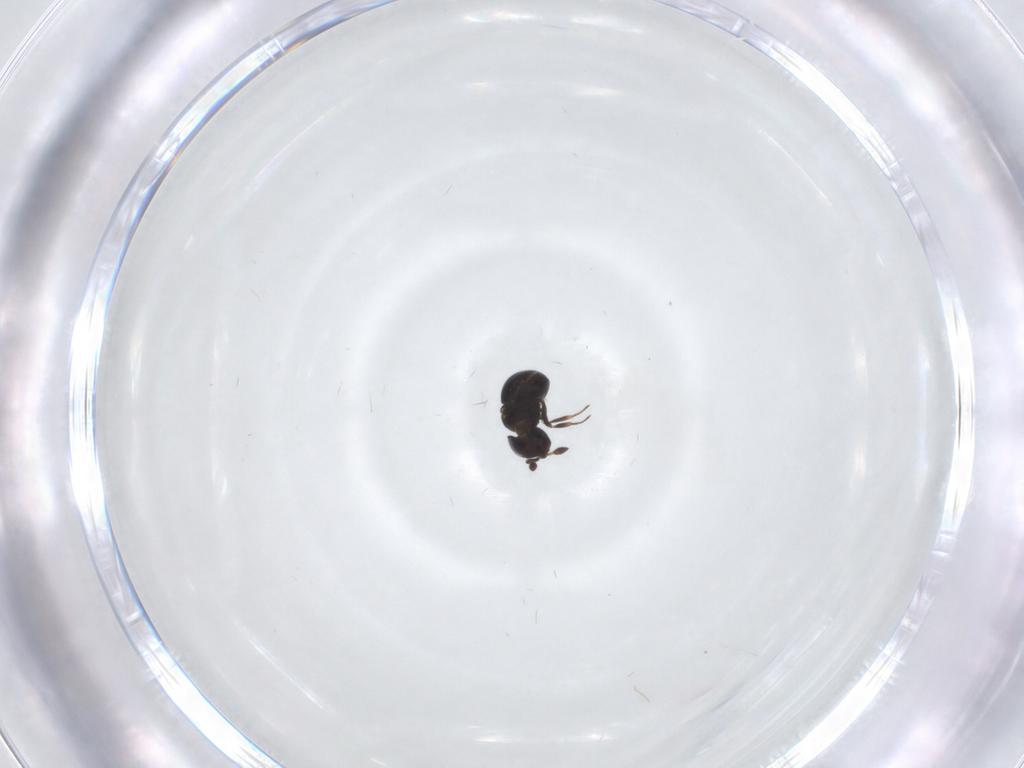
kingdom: Animalia
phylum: Arthropoda
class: Insecta
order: Hymenoptera
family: Scelionidae
